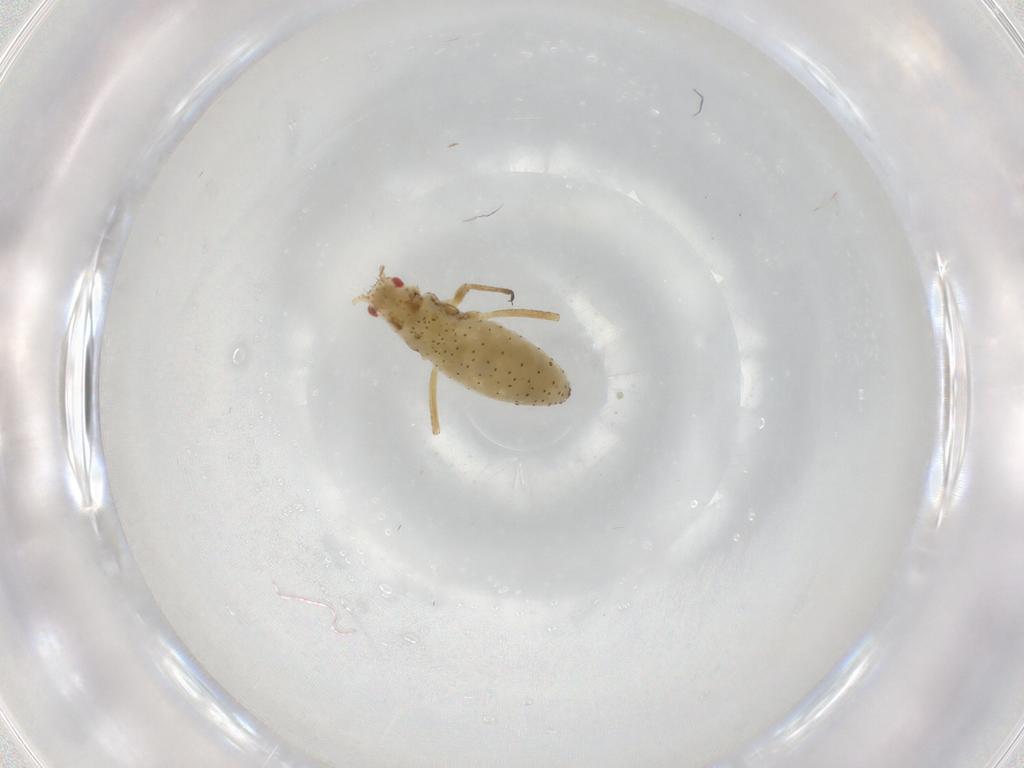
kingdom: Animalia
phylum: Arthropoda
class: Insecta
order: Hemiptera
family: Aphididae
